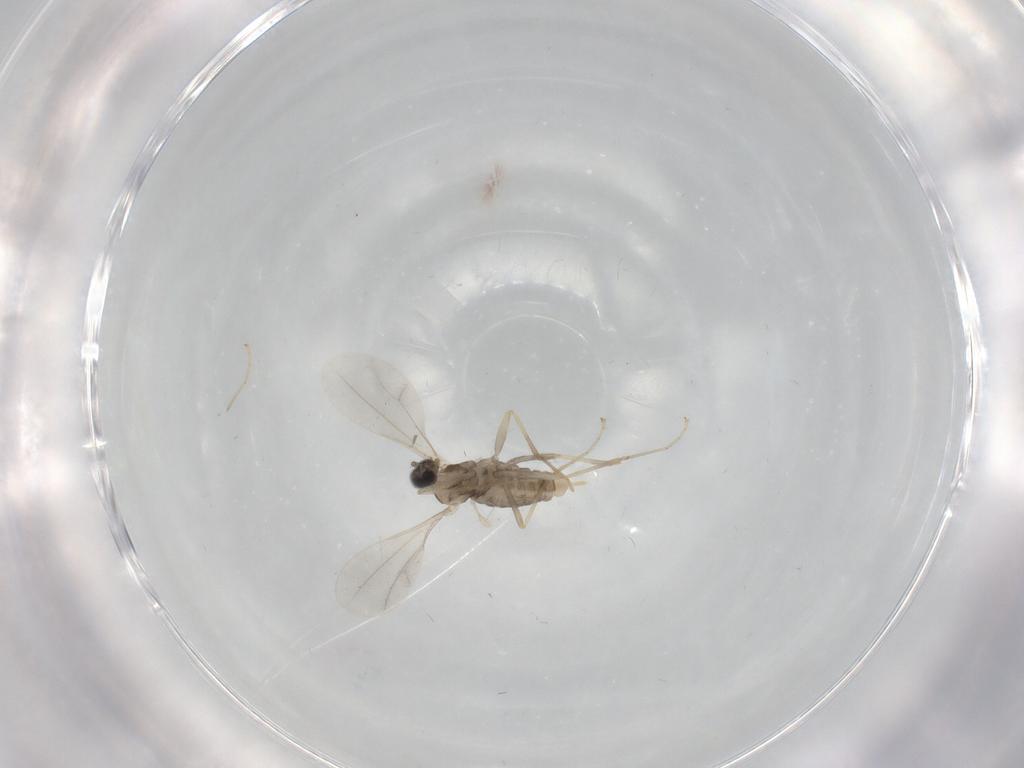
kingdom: Animalia
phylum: Arthropoda
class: Insecta
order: Diptera
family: Cecidomyiidae
